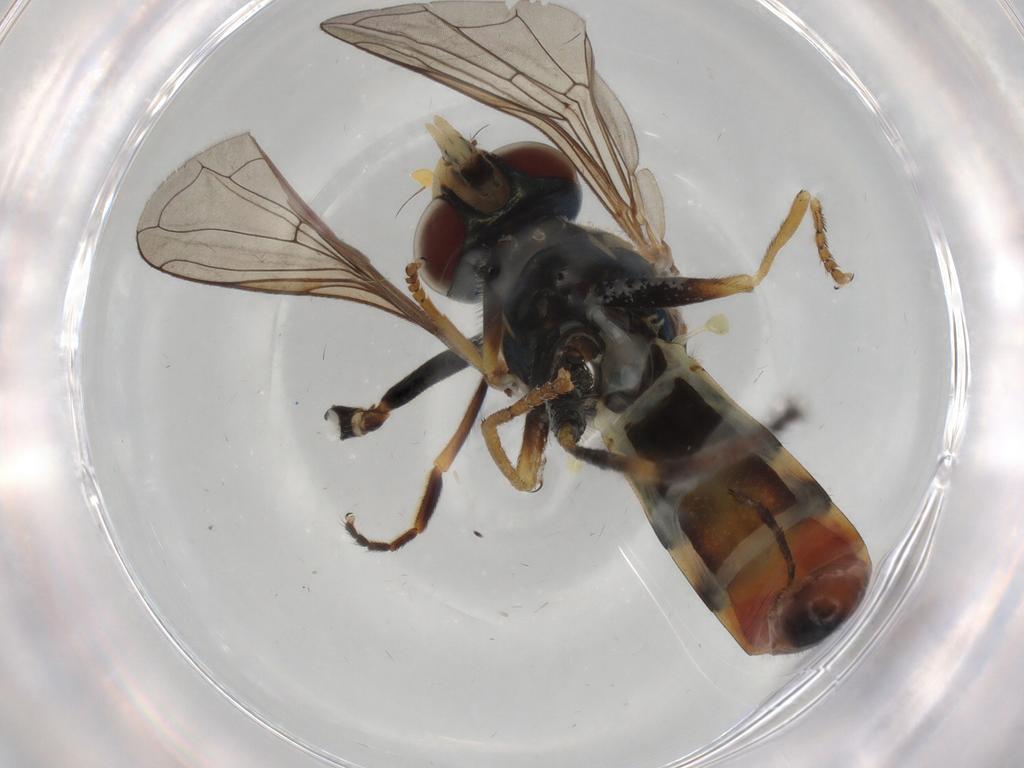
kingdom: Animalia
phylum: Arthropoda
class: Insecta
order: Diptera
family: Syrphidae
